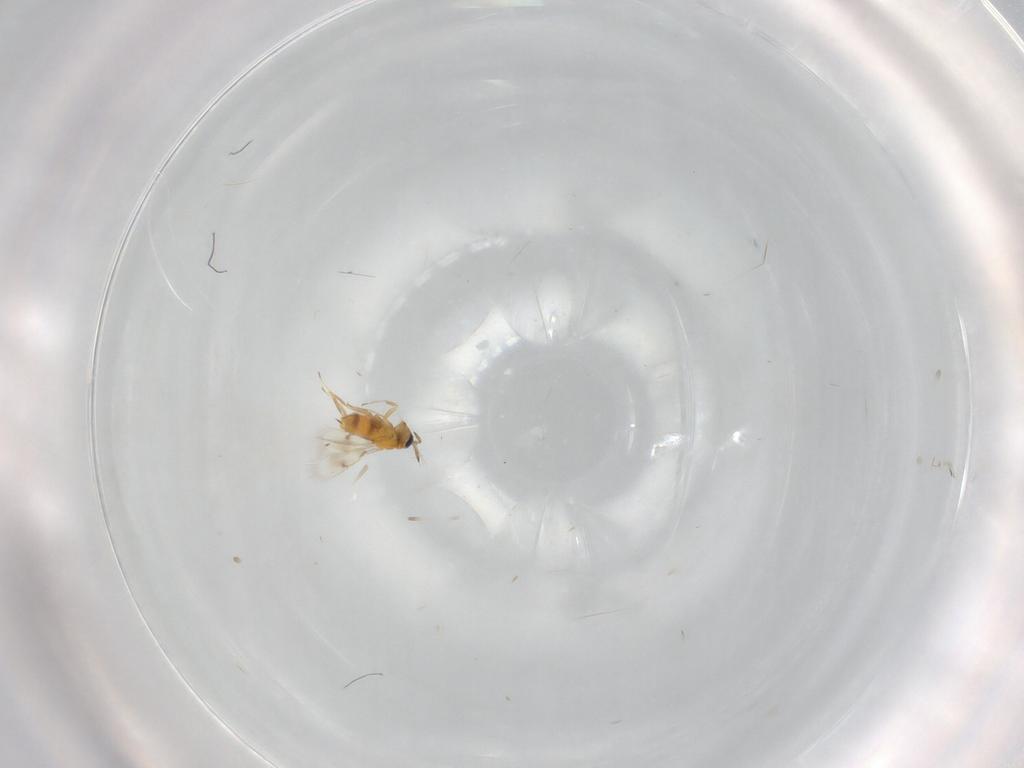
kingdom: Animalia
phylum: Arthropoda
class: Insecta
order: Hymenoptera
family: Aphelinidae
